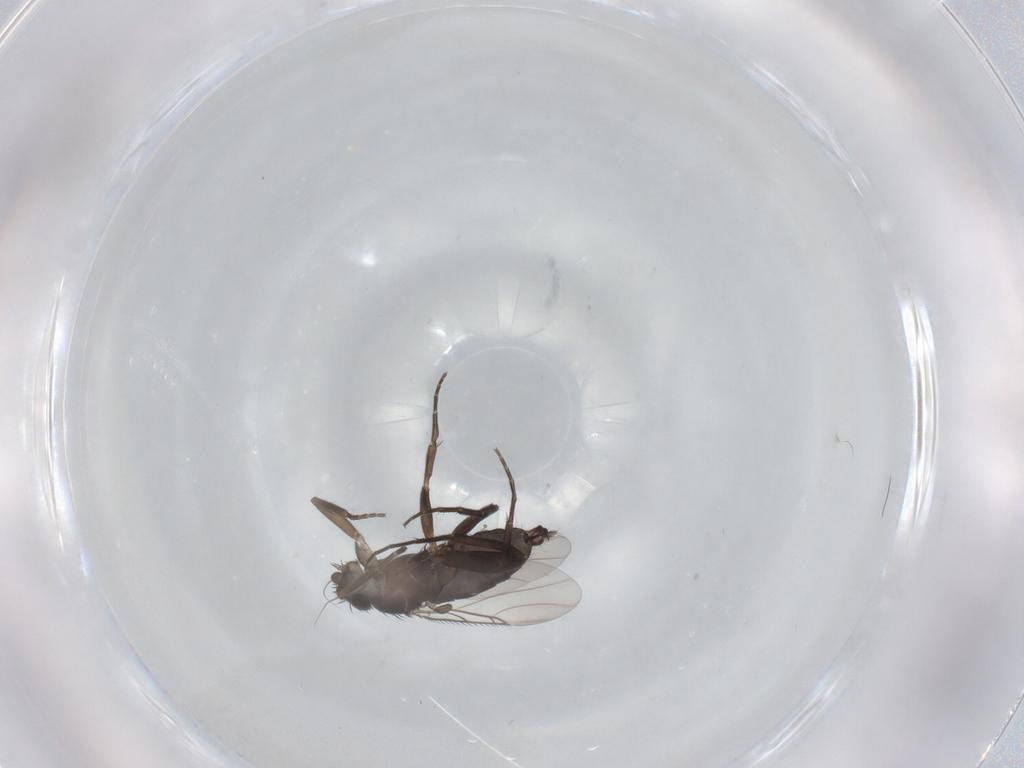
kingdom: Animalia
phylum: Arthropoda
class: Insecta
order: Diptera
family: Phoridae
